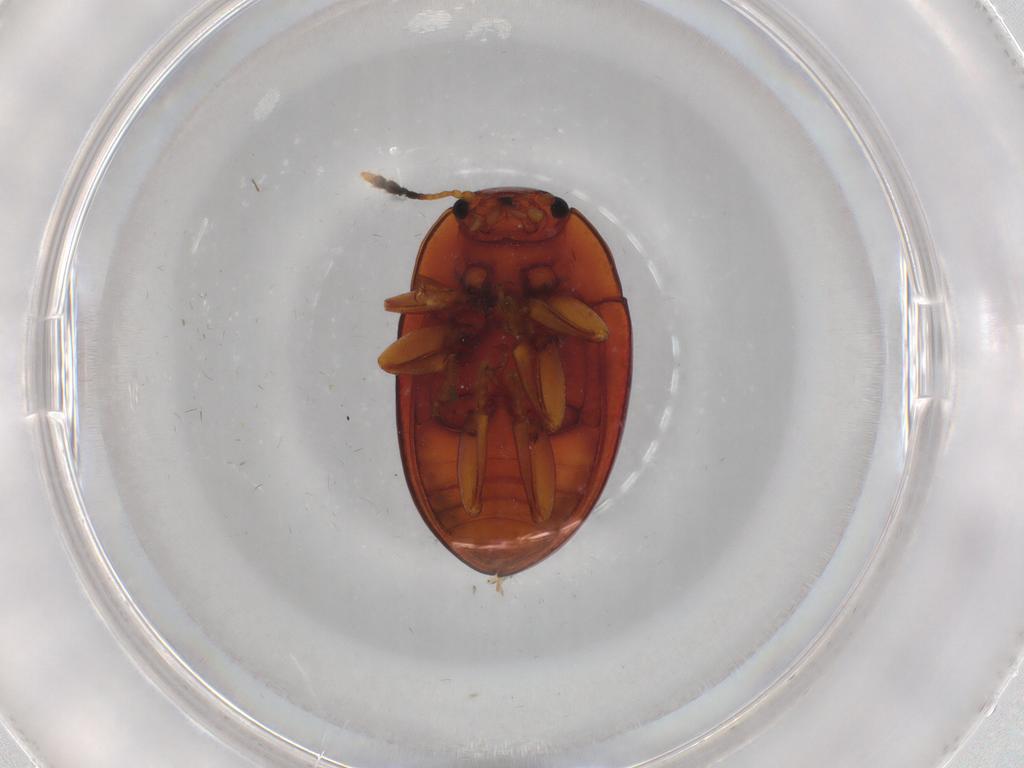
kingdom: Animalia
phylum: Arthropoda
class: Insecta
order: Coleoptera
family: Erotylidae
